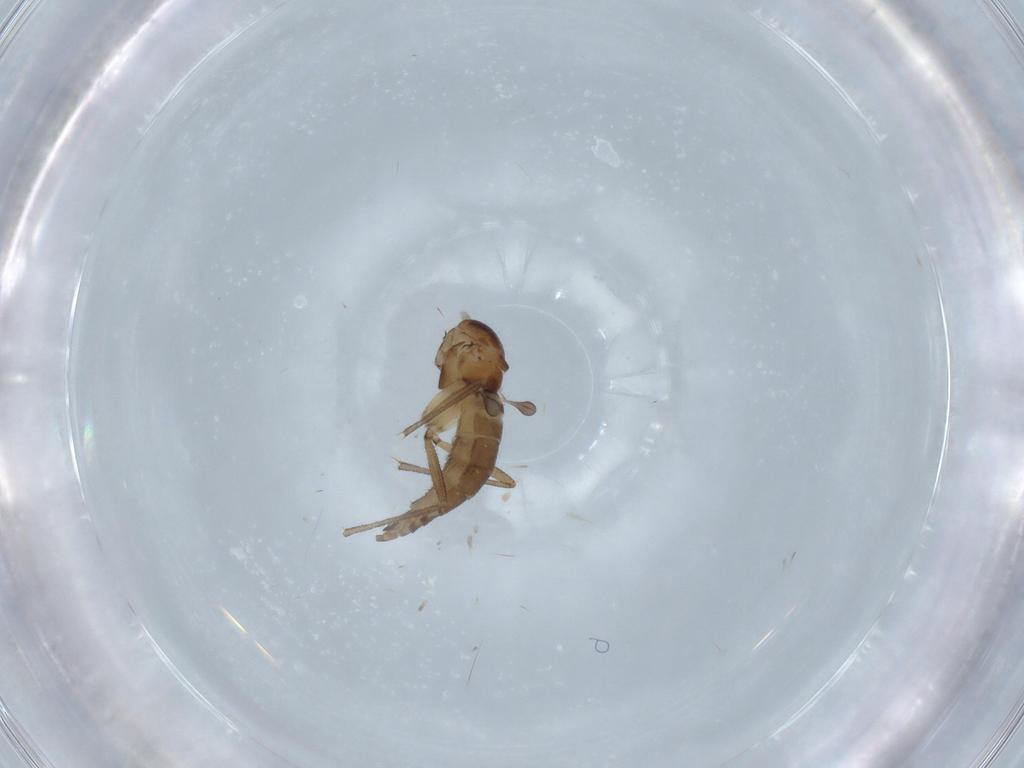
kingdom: Animalia
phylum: Arthropoda
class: Insecta
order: Diptera
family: Sciaridae
